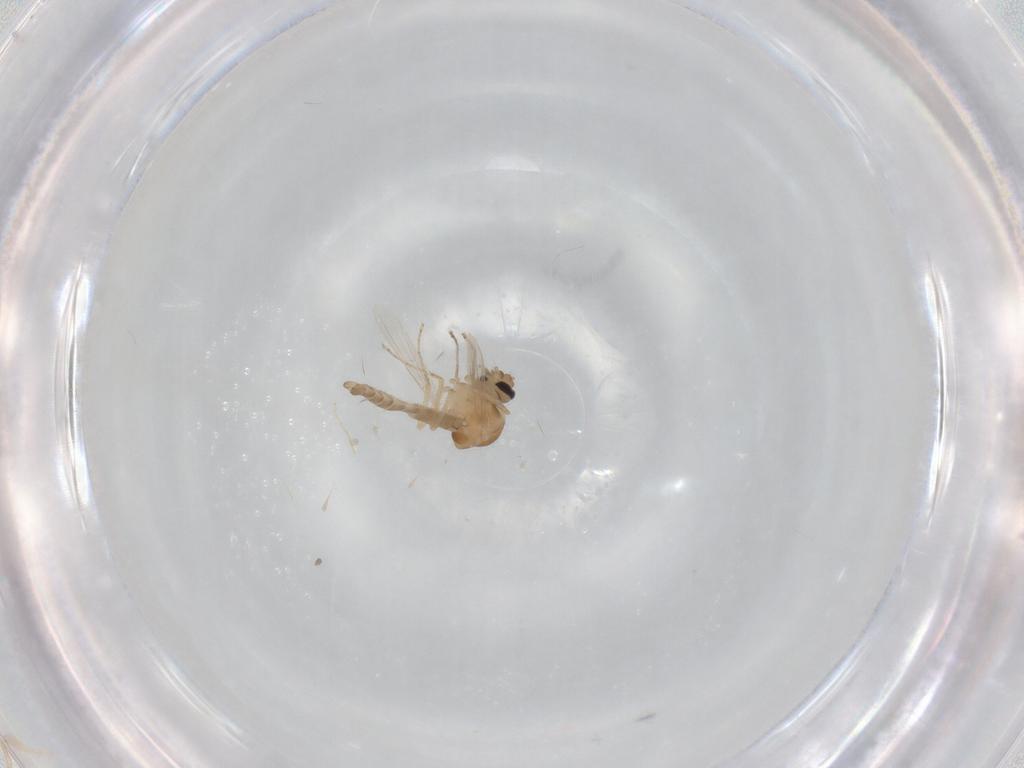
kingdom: Animalia
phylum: Arthropoda
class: Insecta
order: Diptera
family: Ceratopogonidae
